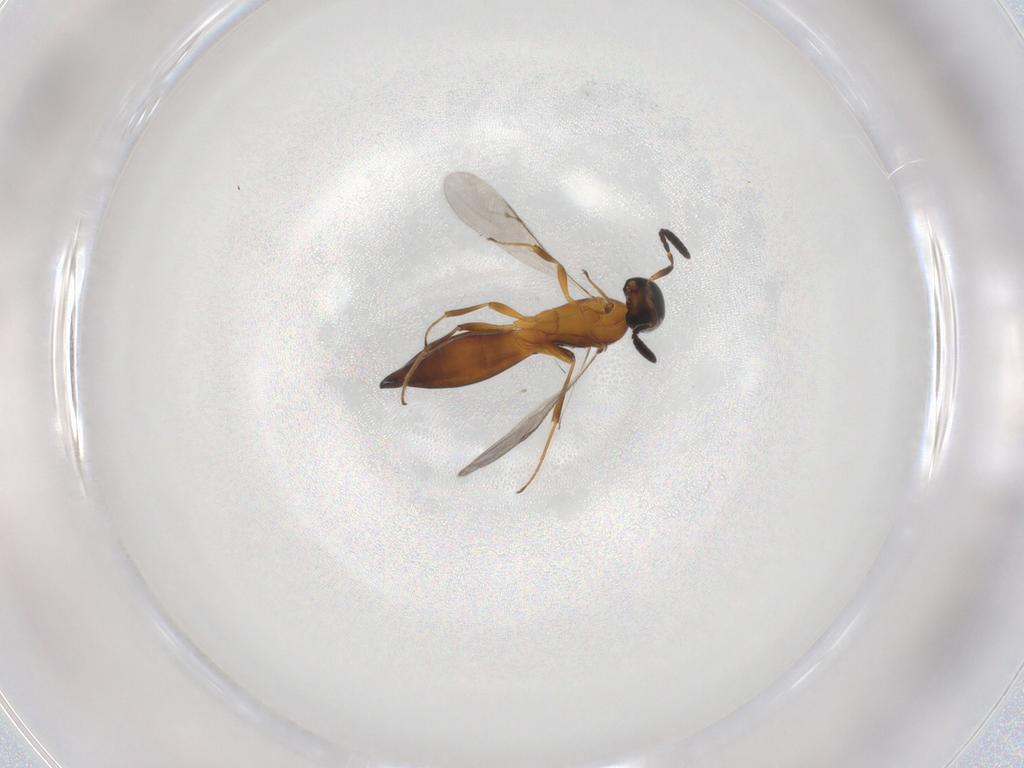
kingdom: Animalia
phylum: Arthropoda
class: Insecta
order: Hymenoptera
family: Scelionidae
